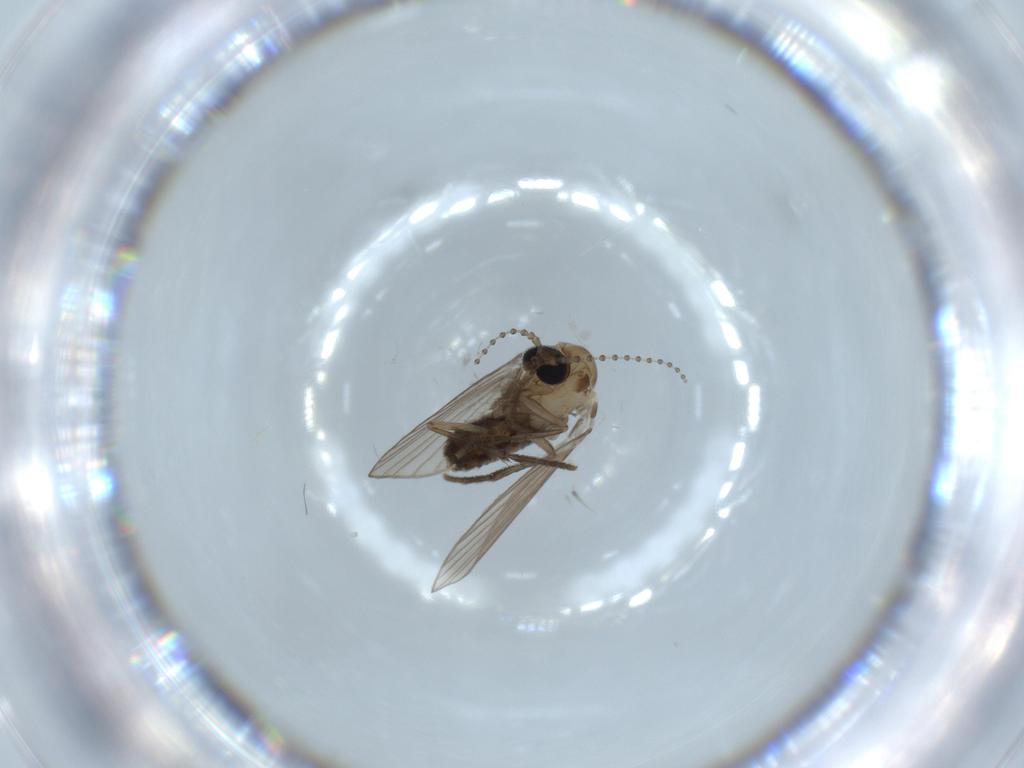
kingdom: Animalia
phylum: Arthropoda
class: Insecta
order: Diptera
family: Psychodidae
